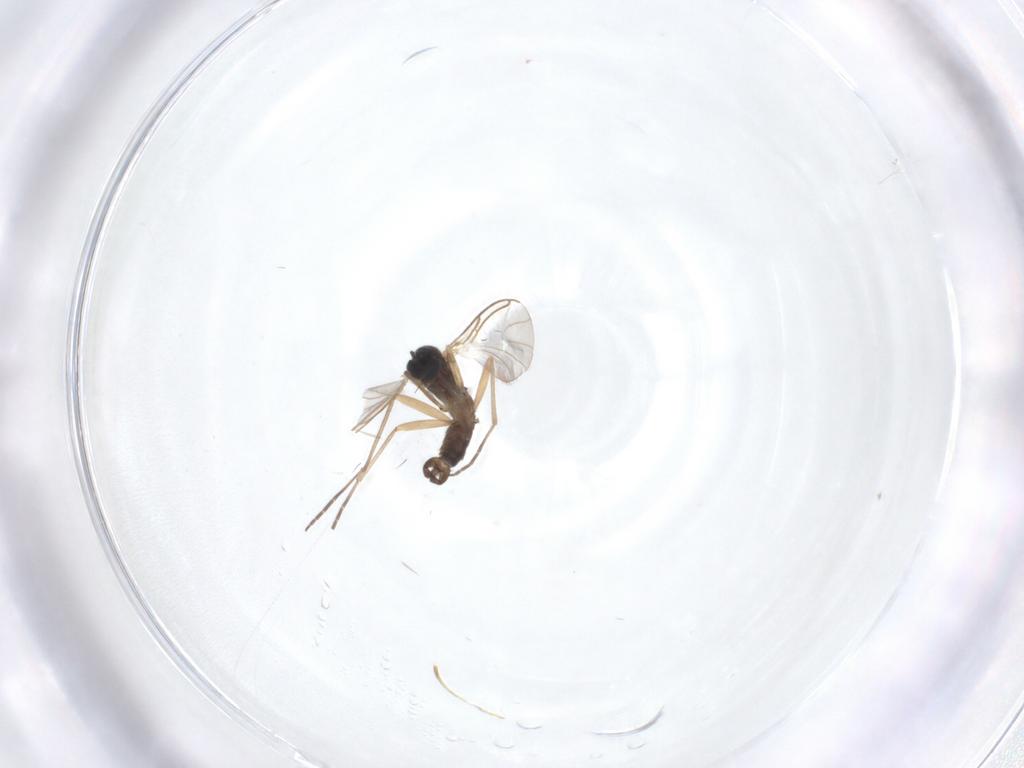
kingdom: Animalia
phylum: Arthropoda
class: Insecta
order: Diptera
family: Sciaridae
